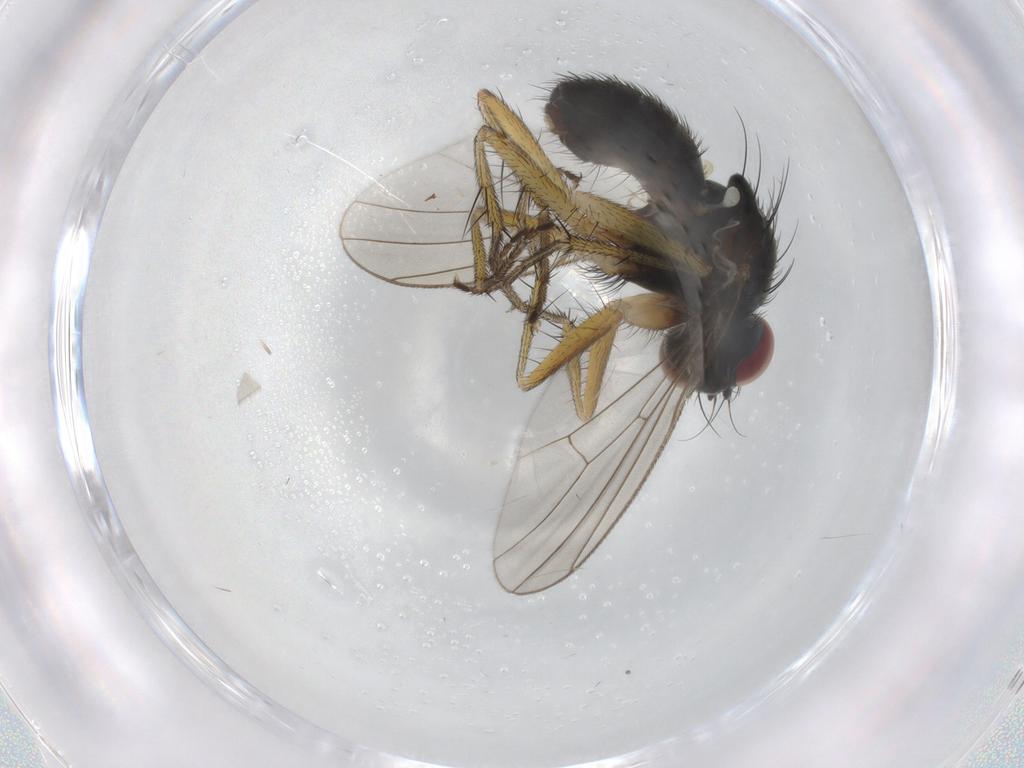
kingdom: Animalia
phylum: Arthropoda
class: Insecta
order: Diptera
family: Muscidae
